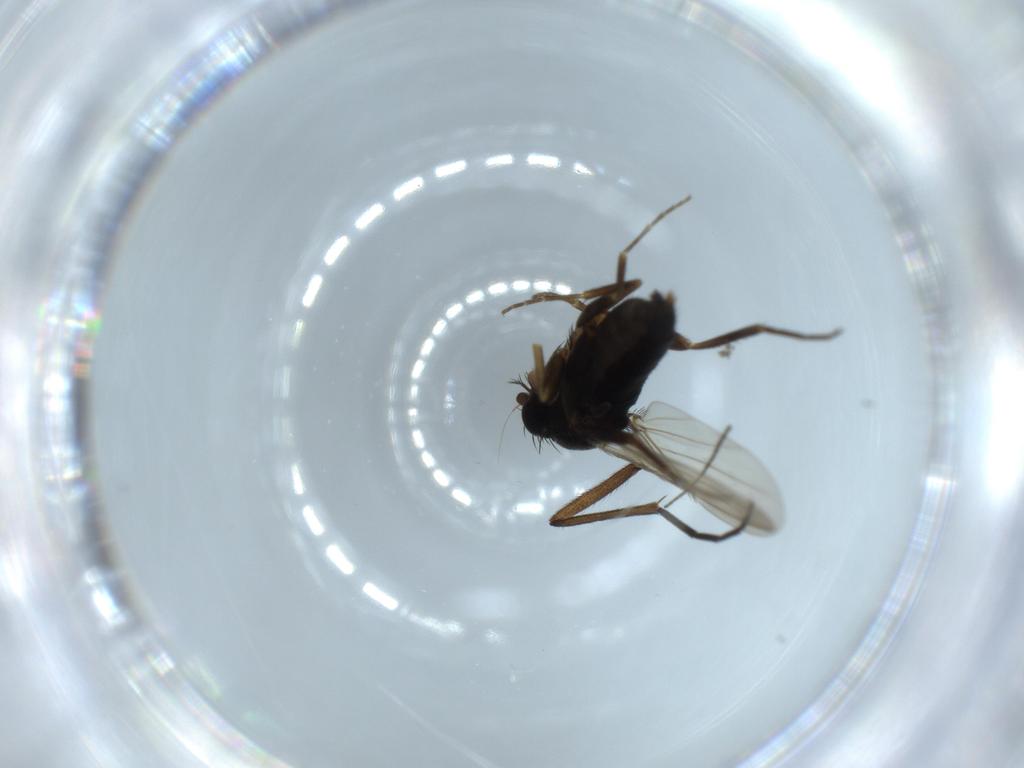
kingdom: Animalia
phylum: Arthropoda
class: Insecta
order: Diptera
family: Phoridae
